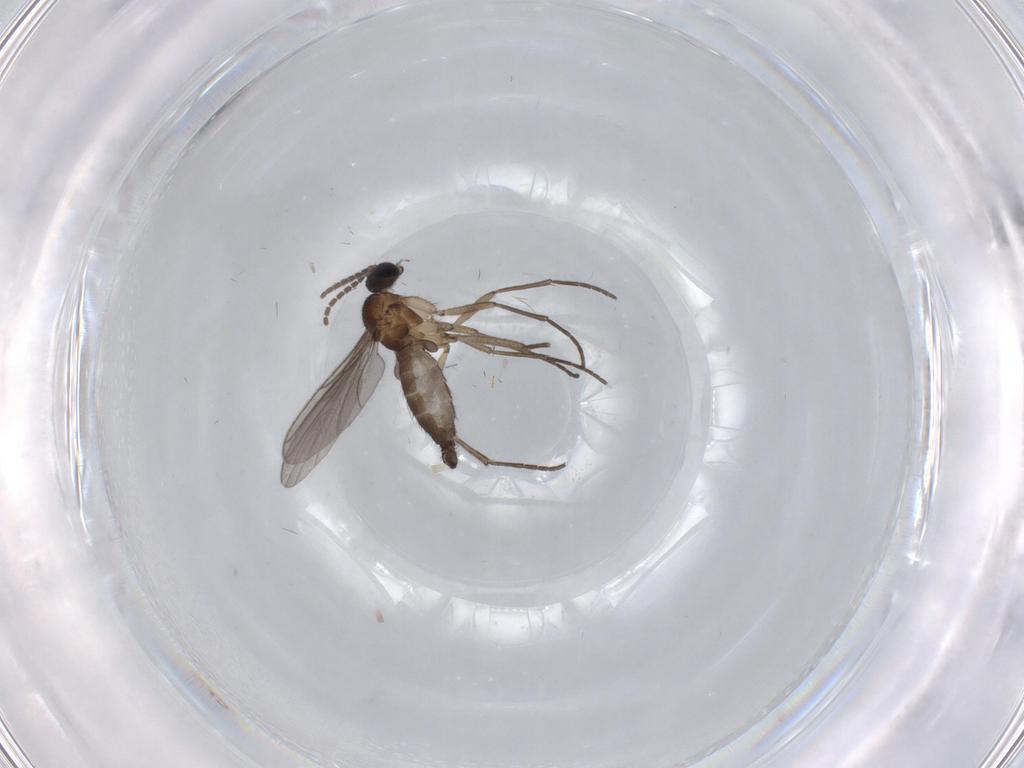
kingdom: Animalia
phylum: Arthropoda
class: Insecta
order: Diptera
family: Sciaridae
